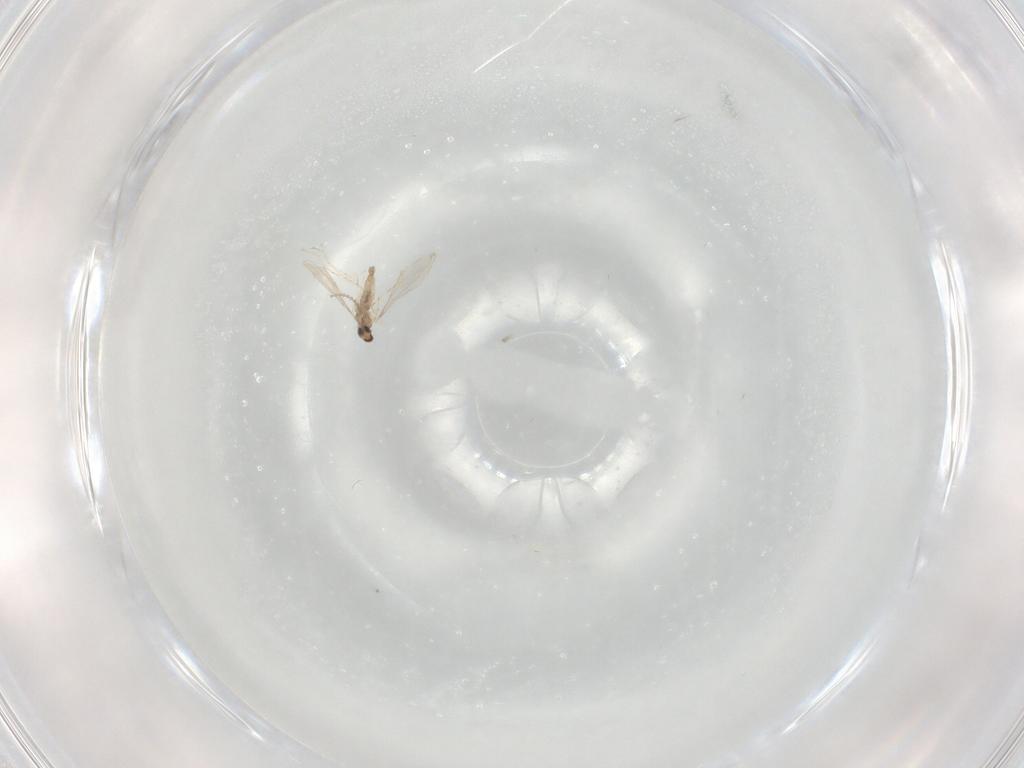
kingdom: Animalia
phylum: Arthropoda
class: Insecta
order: Diptera
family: Cecidomyiidae
